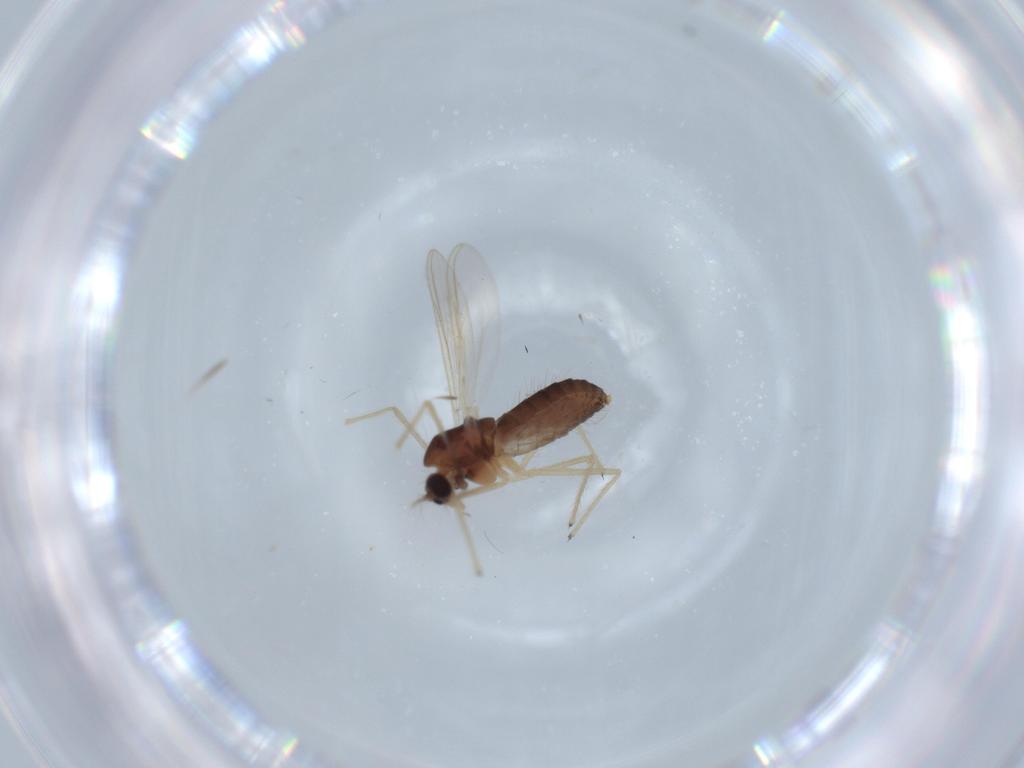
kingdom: Animalia
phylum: Arthropoda
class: Insecta
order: Diptera
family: Chironomidae
